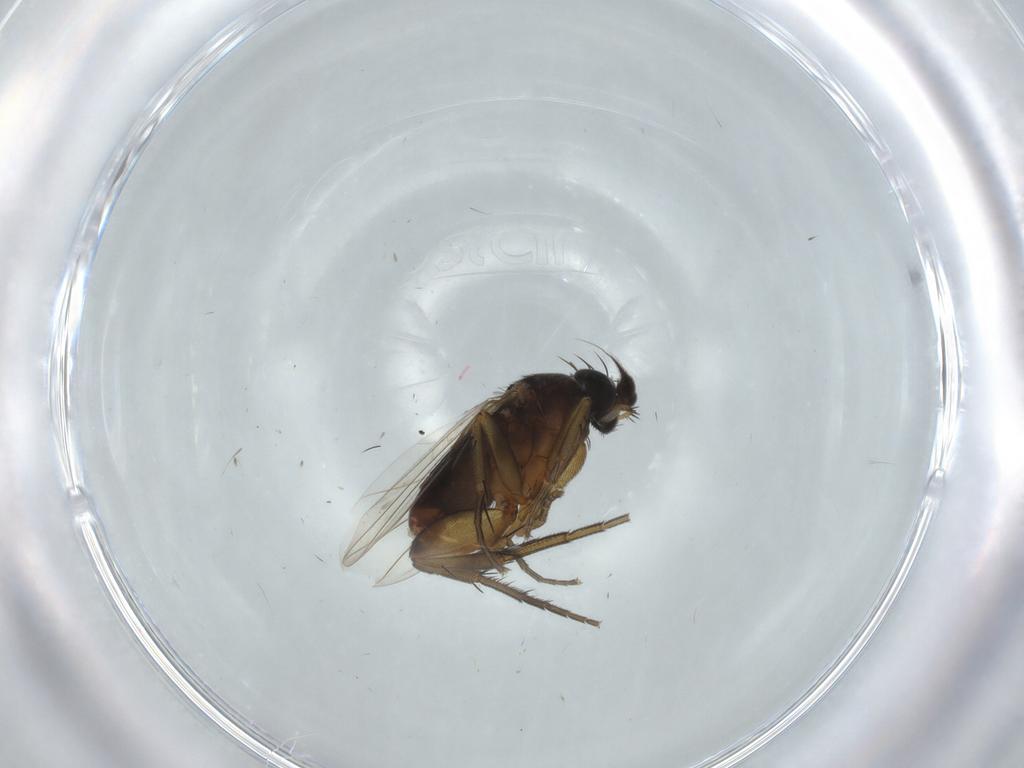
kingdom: Animalia
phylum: Arthropoda
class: Insecta
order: Diptera
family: Phoridae
